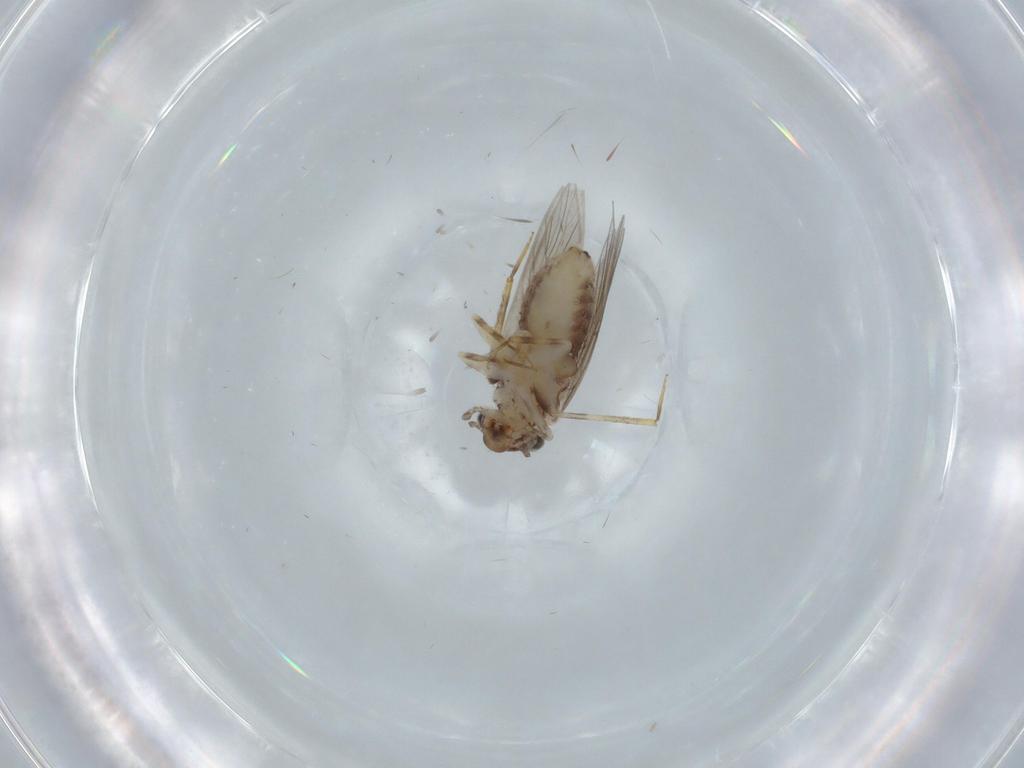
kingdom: Animalia
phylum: Arthropoda
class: Insecta
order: Psocodea
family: Lepidopsocidae
